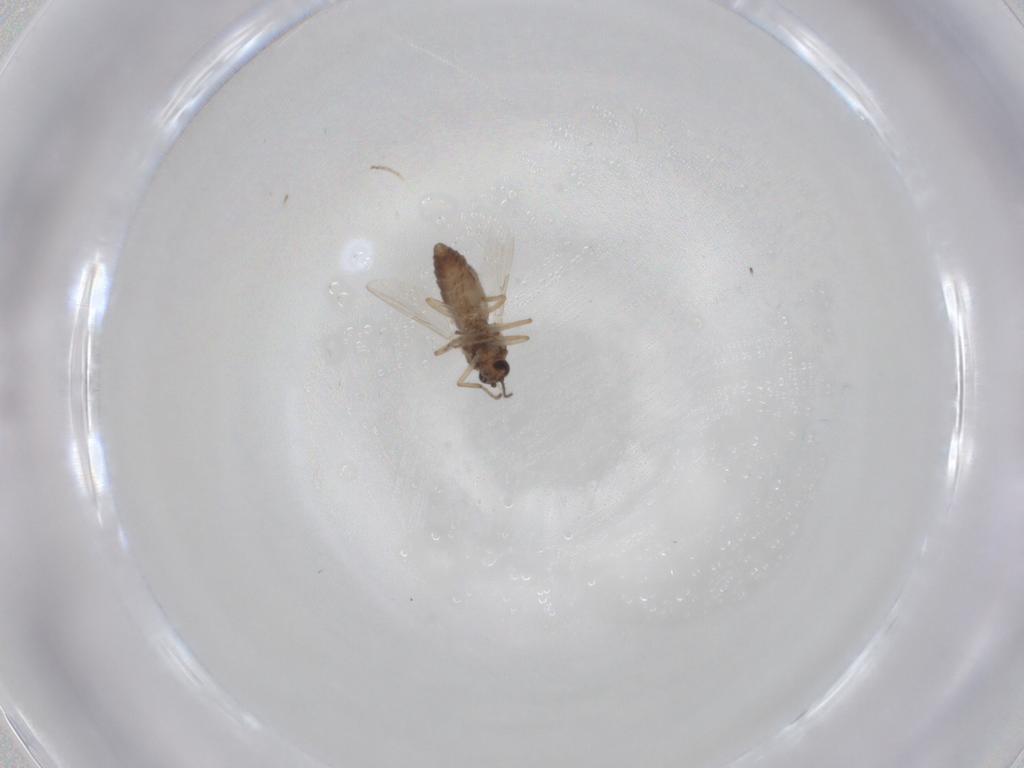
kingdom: Animalia
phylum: Arthropoda
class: Insecta
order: Diptera
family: Ceratopogonidae
